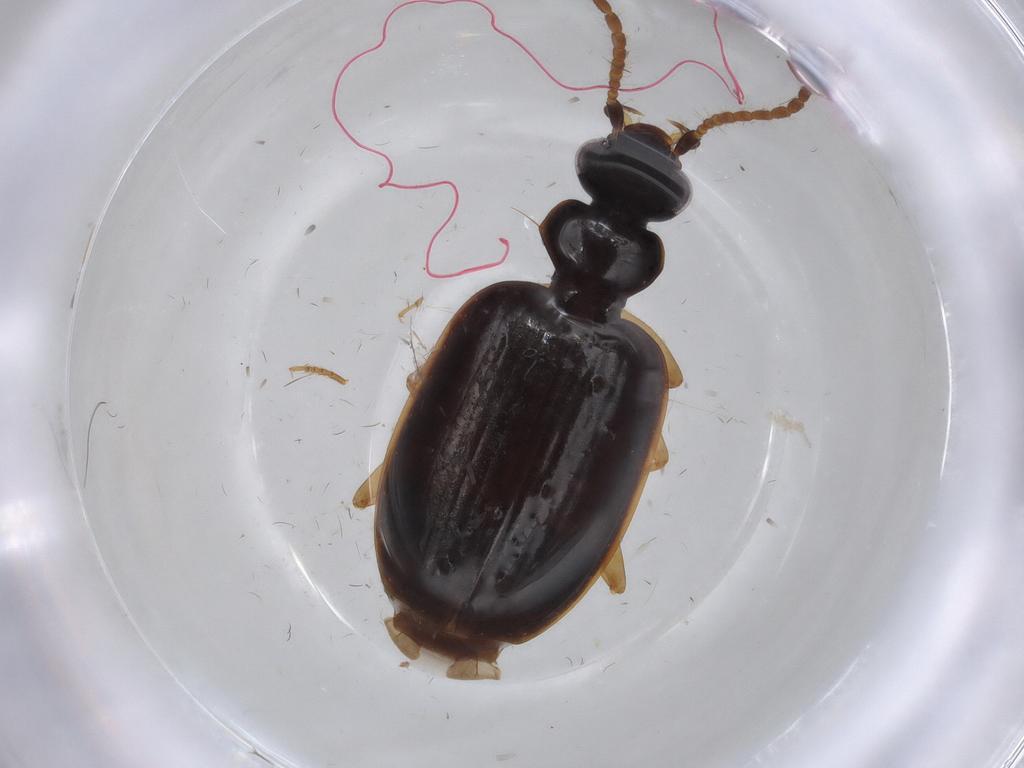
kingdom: Animalia
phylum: Arthropoda
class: Insecta
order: Coleoptera
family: Carabidae
